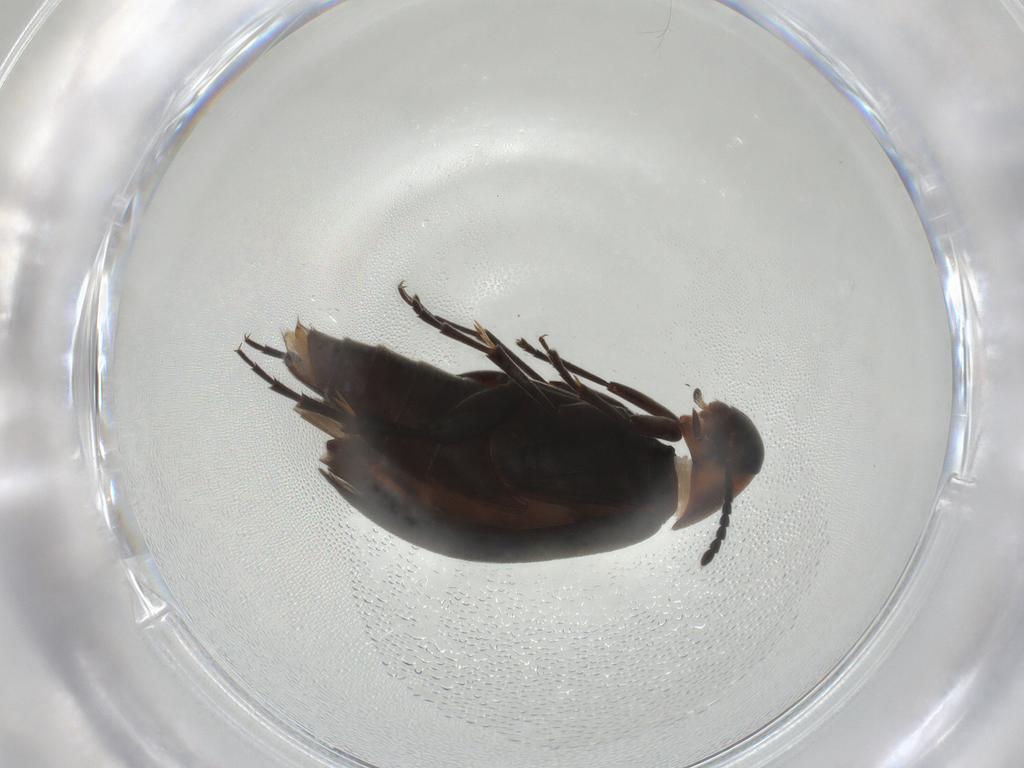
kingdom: Animalia
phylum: Arthropoda
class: Insecta
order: Coleoptera
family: Scraptiidae
